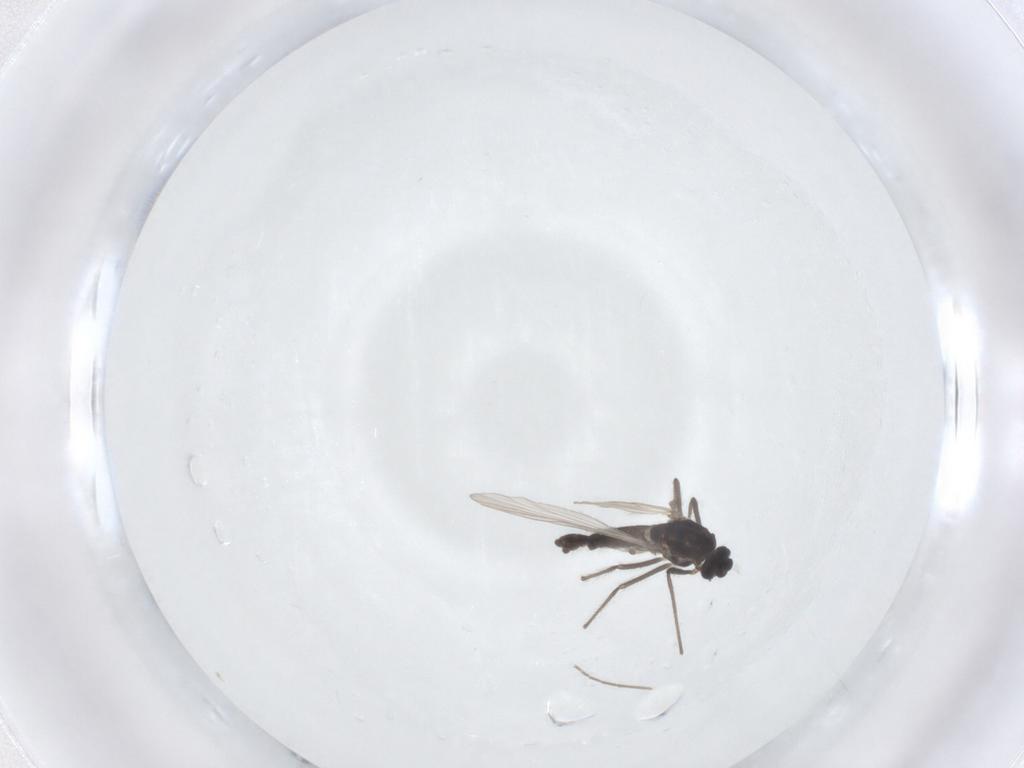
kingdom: Animalia
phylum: Arthropoda
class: Insecta
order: Diptera
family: Chironomidae
